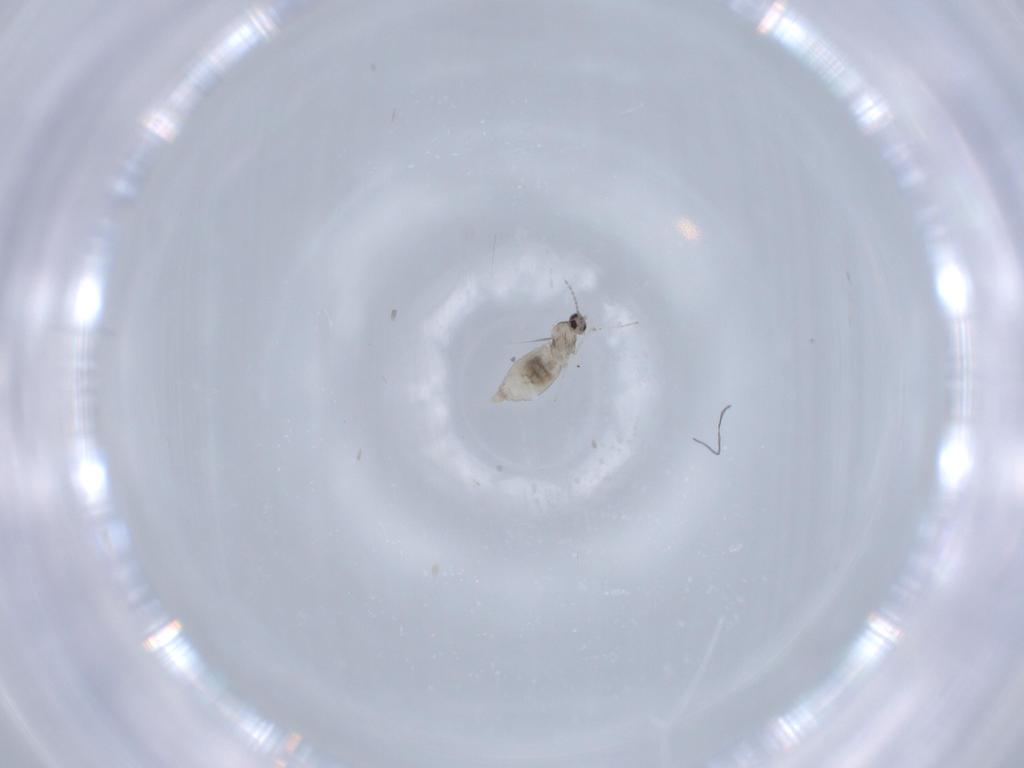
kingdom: Animalia
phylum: Arthropoda
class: Insecta
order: Diptera
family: Cecidomyiidae
